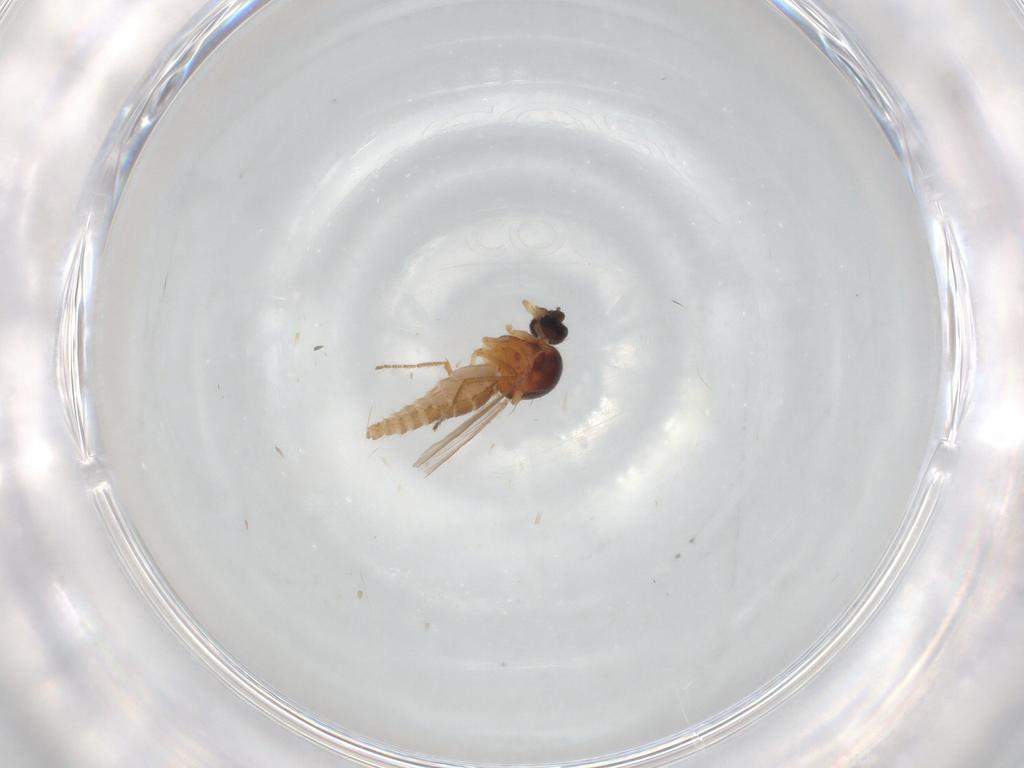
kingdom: Animalia
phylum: Arthropoda
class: Insecta
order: Diptera
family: Ceratopogonidae
